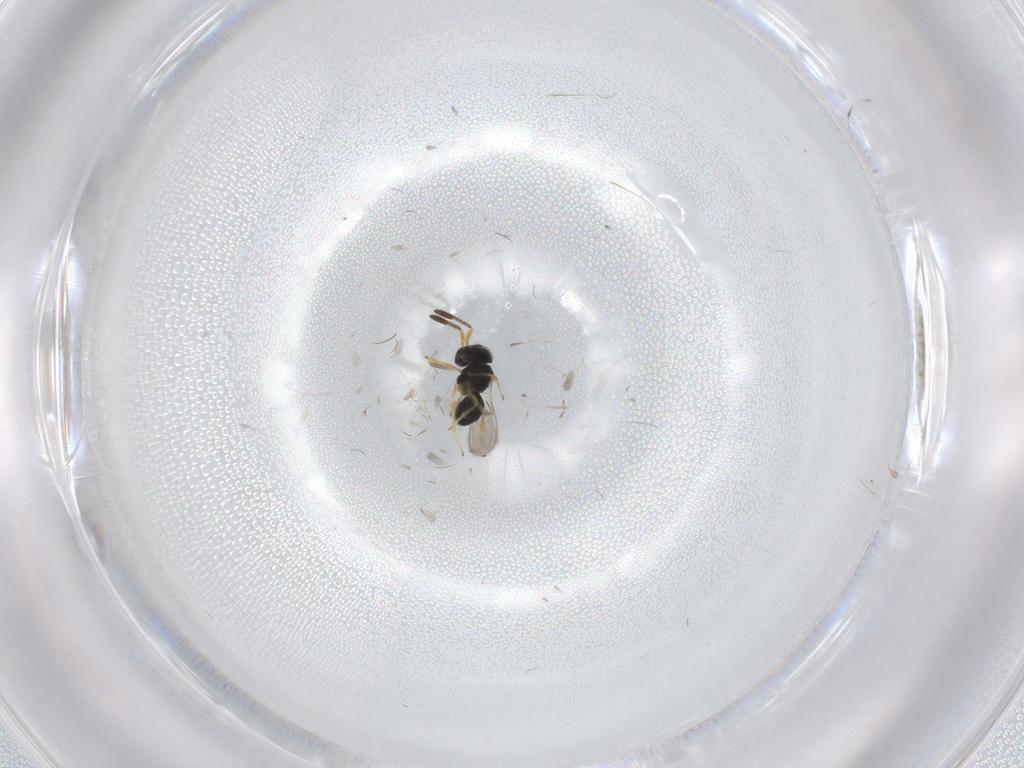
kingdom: Animalia
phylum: Arthropoda
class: Insecta
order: Hymenoptera
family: Scelionidae
